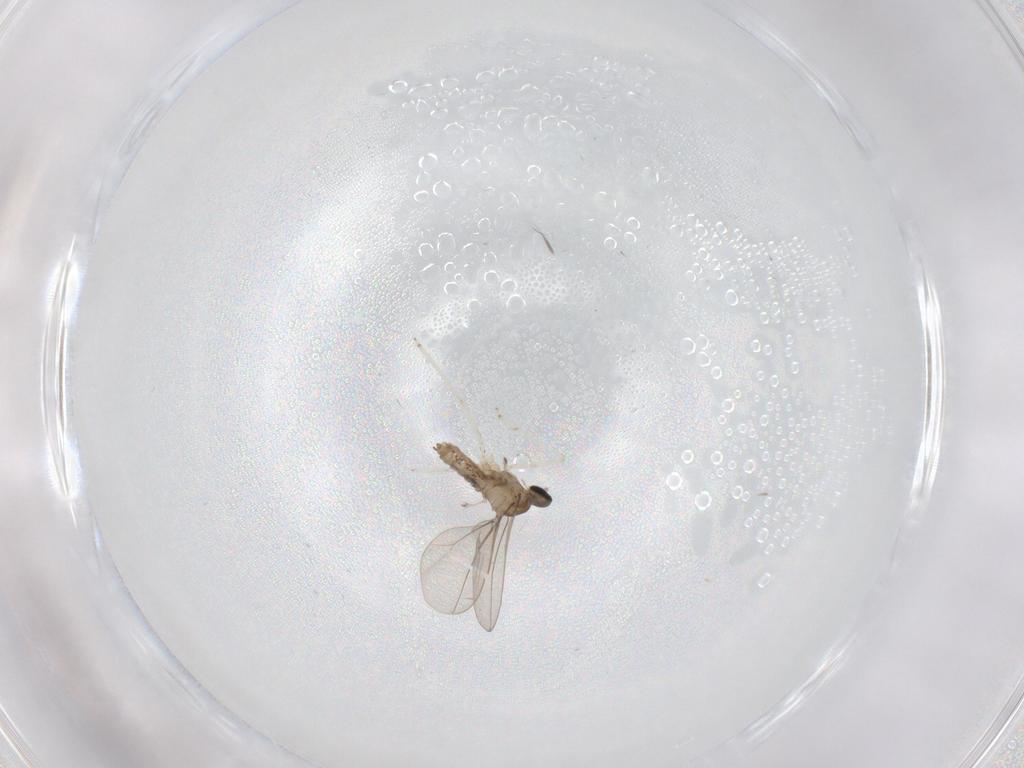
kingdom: Animalia
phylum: Arthropoda
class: Insecta
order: Diptera
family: Cecidomyiidae
